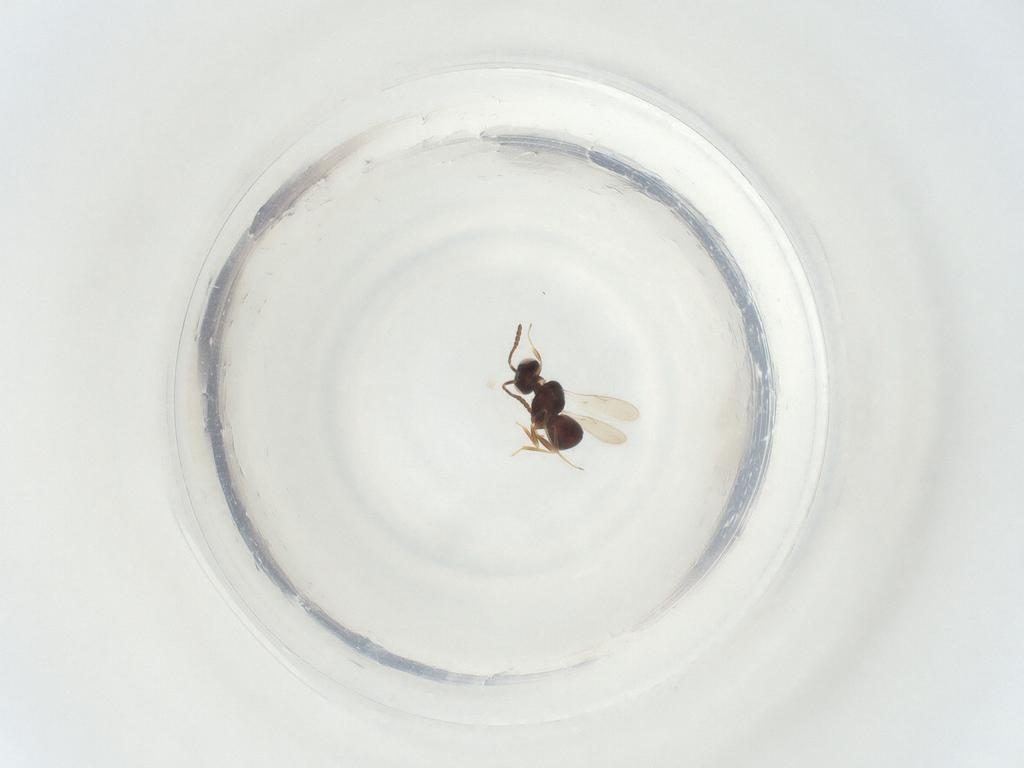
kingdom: Animalia
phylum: Arthropoda
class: Insecta
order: Hymenoptera
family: Scelionidae
